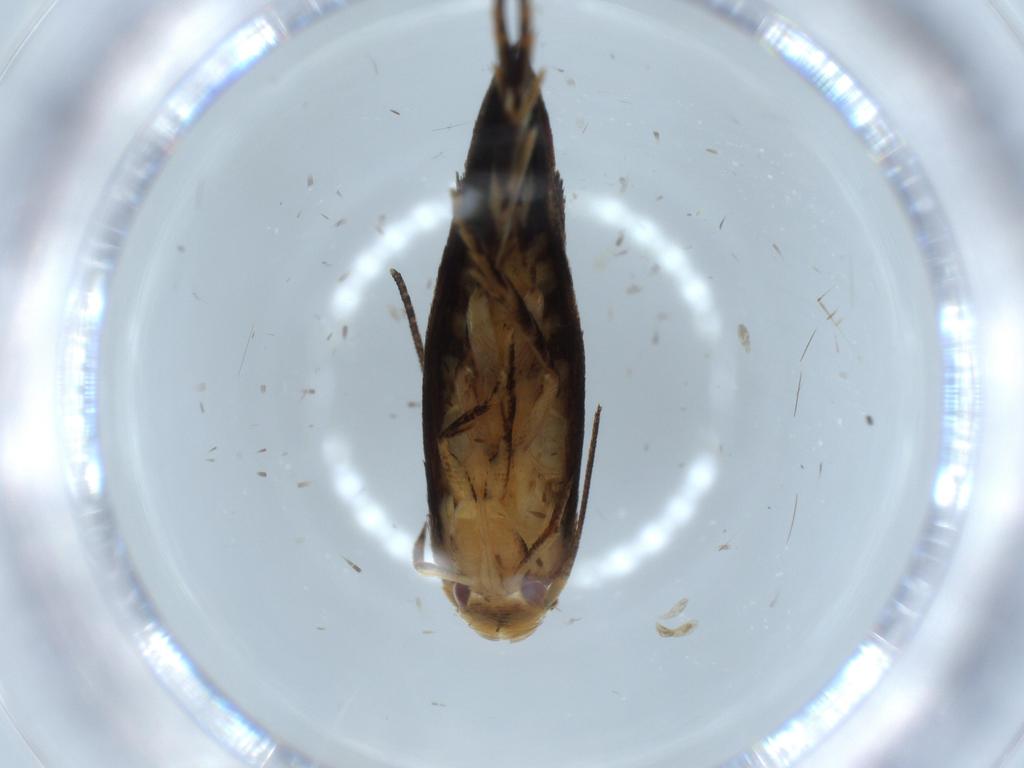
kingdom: Animalia
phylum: Arthropoda
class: Insecta
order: Lepidoptera
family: Momphidae
